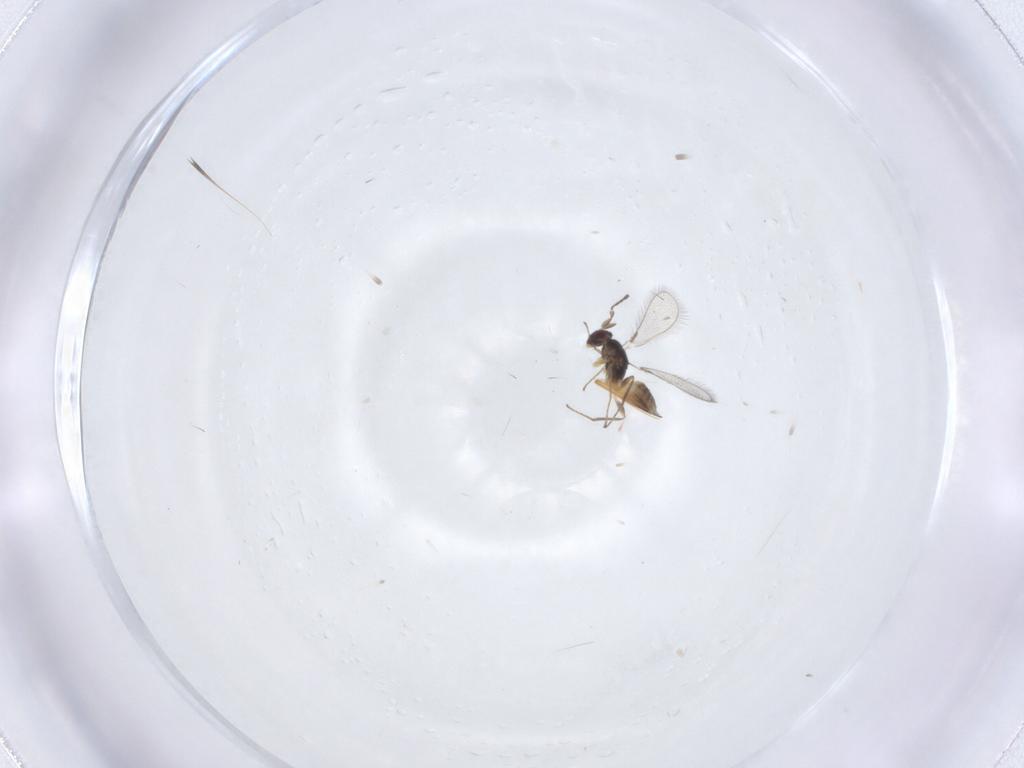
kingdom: Animalia
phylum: Arthropoda
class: Insecta
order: Hymenoptera
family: Mymaridae
